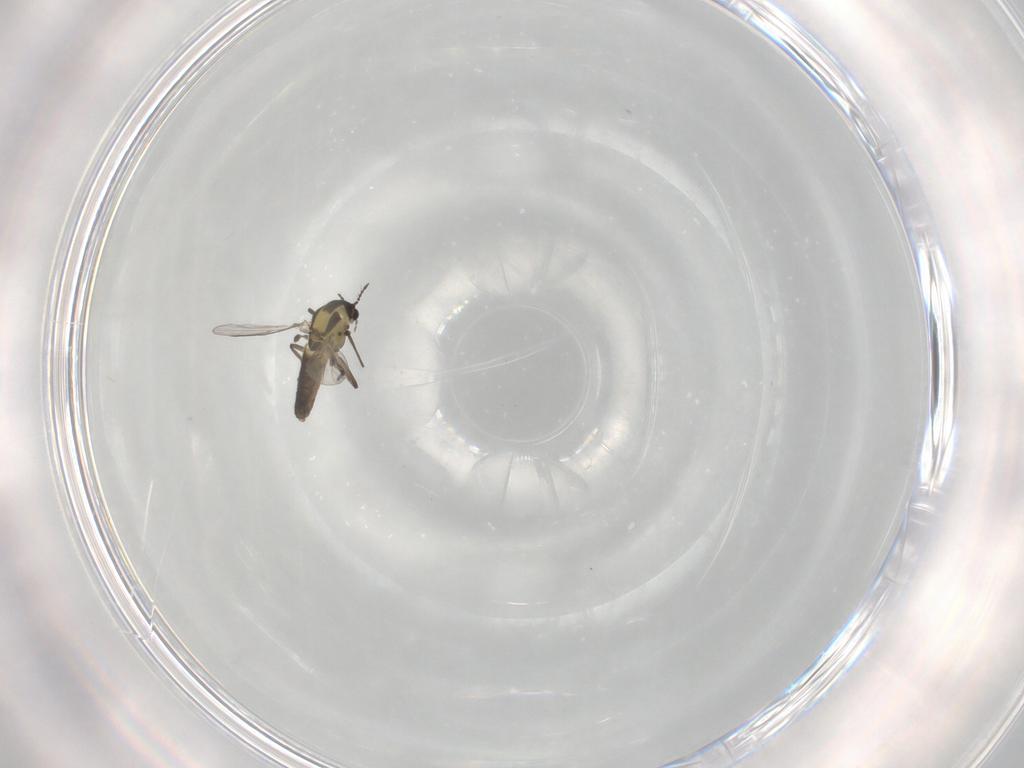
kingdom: Animalia
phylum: Arthropoda
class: Insecta
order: Diptera
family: Chironomidae
